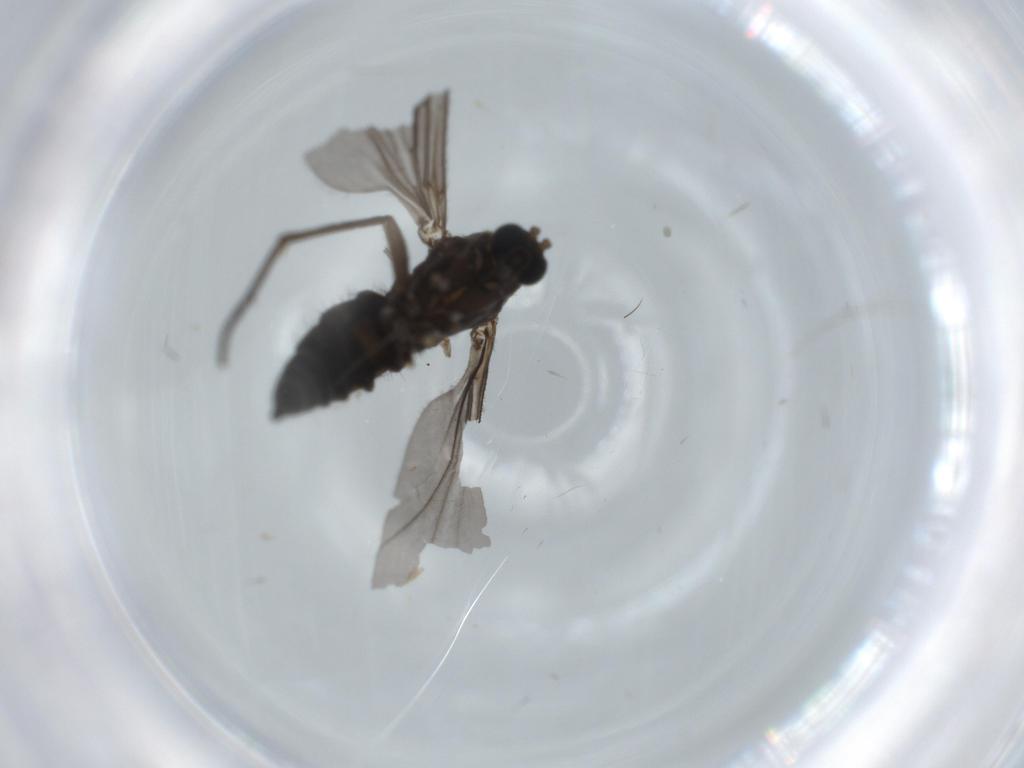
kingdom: Animalia
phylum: Arthropoda
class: Insecta
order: Diptera
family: Sciaridae
